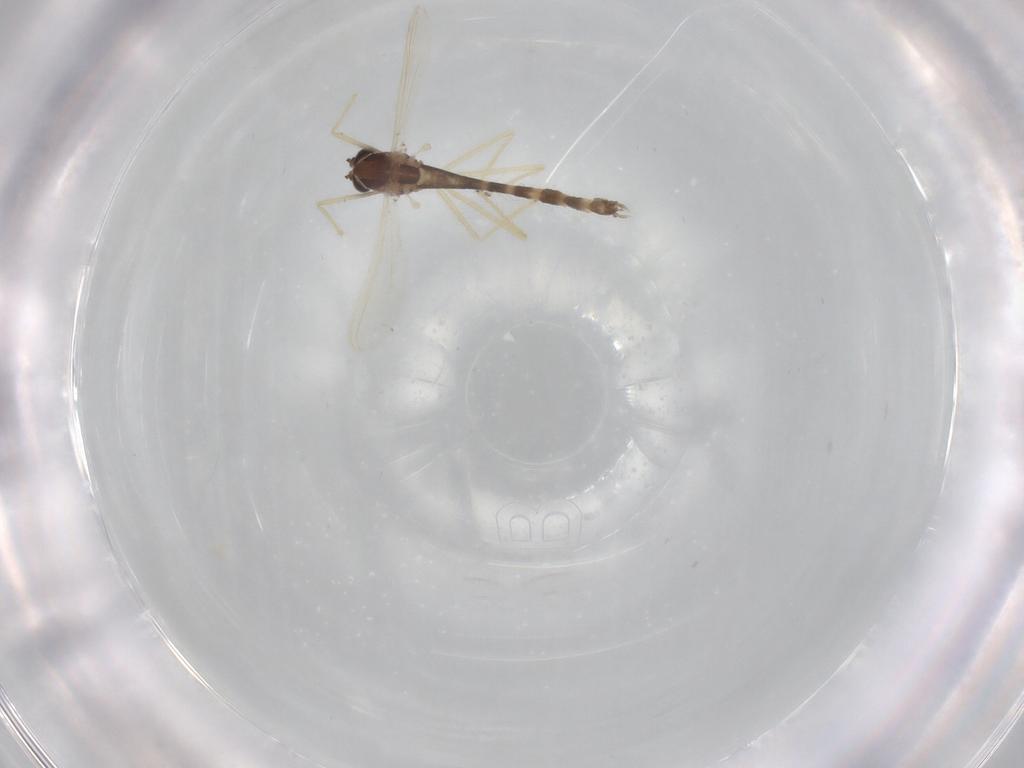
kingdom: Animalia
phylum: Arthropoda
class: Insecta
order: Diptera
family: Chironomidae
